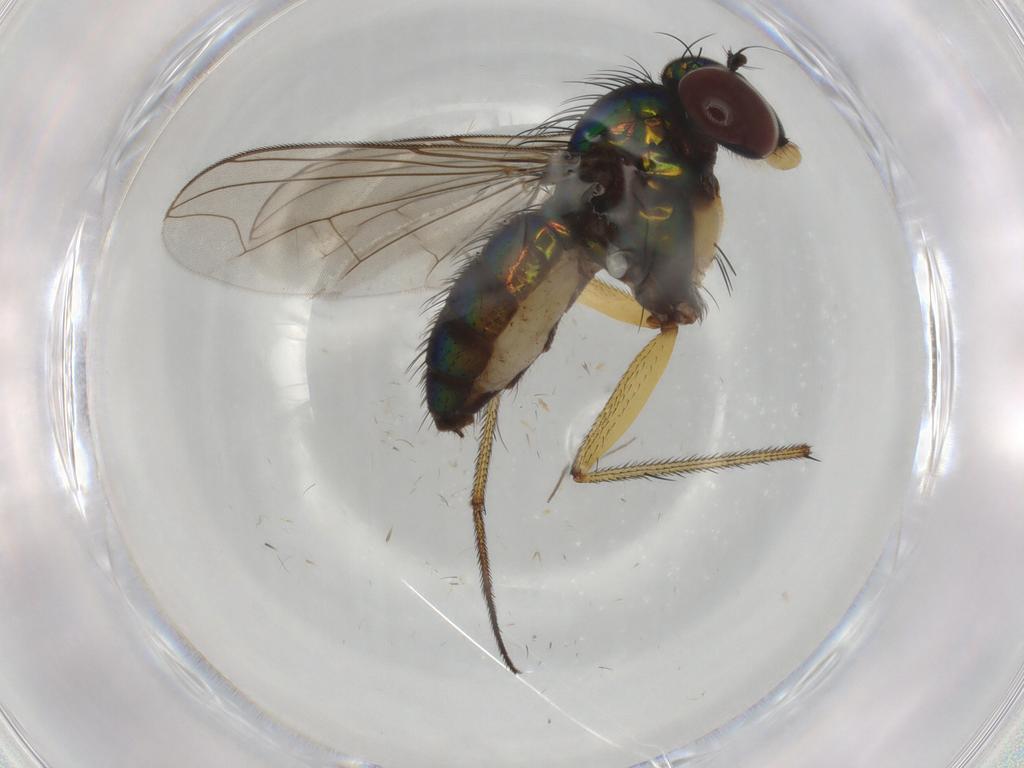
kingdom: Animalia
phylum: Arthropoda
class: Insecta
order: Diptera
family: Dolichopodidae
